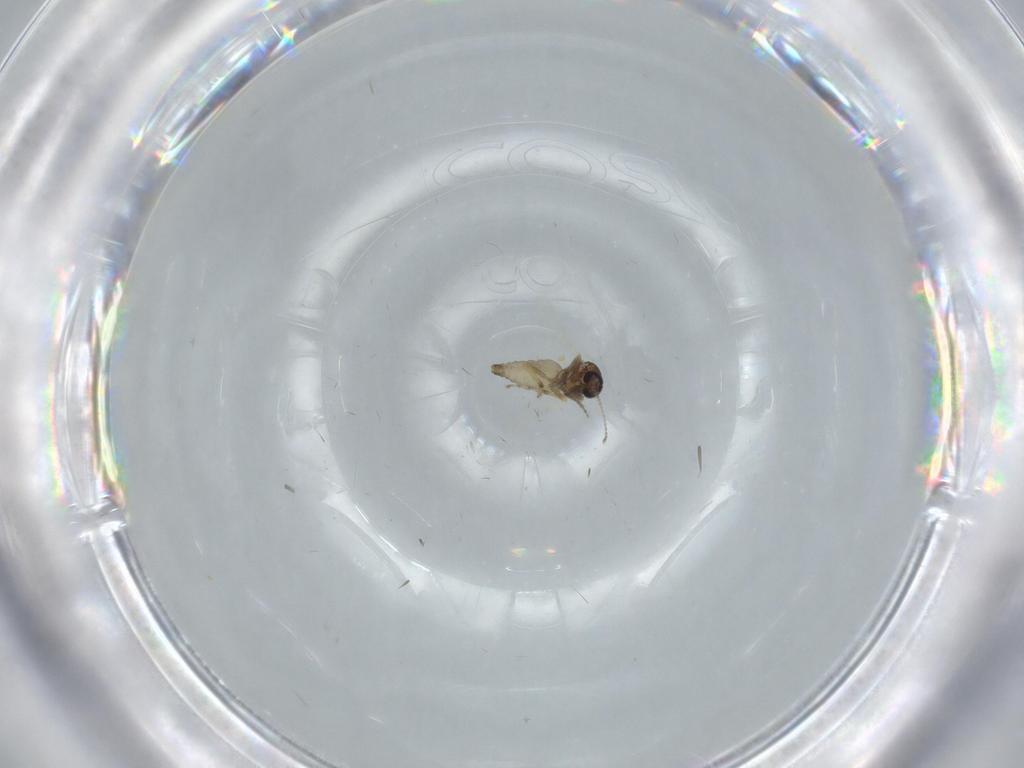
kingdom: Animalia
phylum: Arthropoda
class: Insecta
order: Diptera
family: Ceratopogonidae
